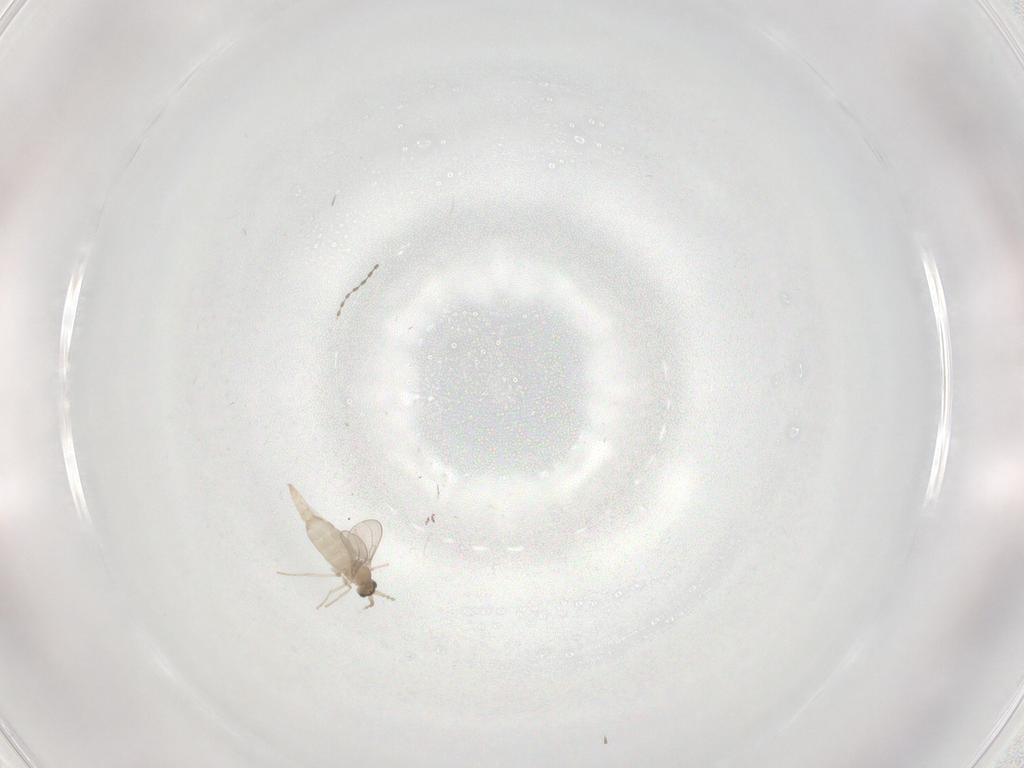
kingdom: Animalia
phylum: Arthropoda
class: Insecta
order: Diptera
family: Cecidomyiidae
